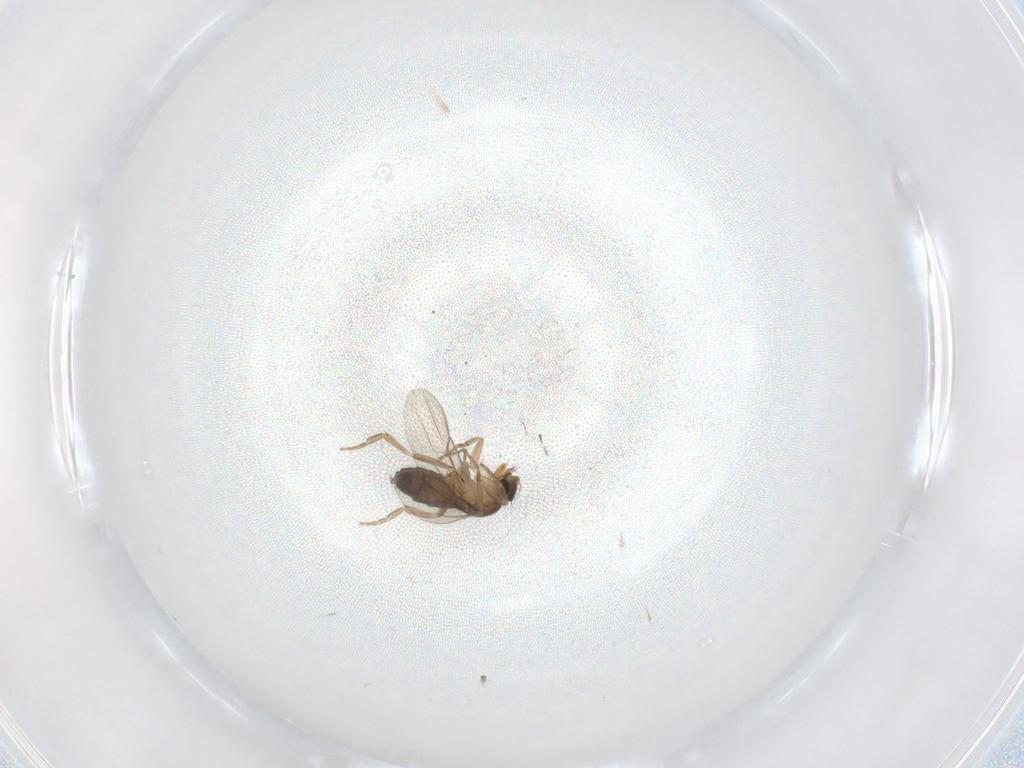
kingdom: Animalia
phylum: Arthropoda
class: Insecta
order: Diptera
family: Phoridae
